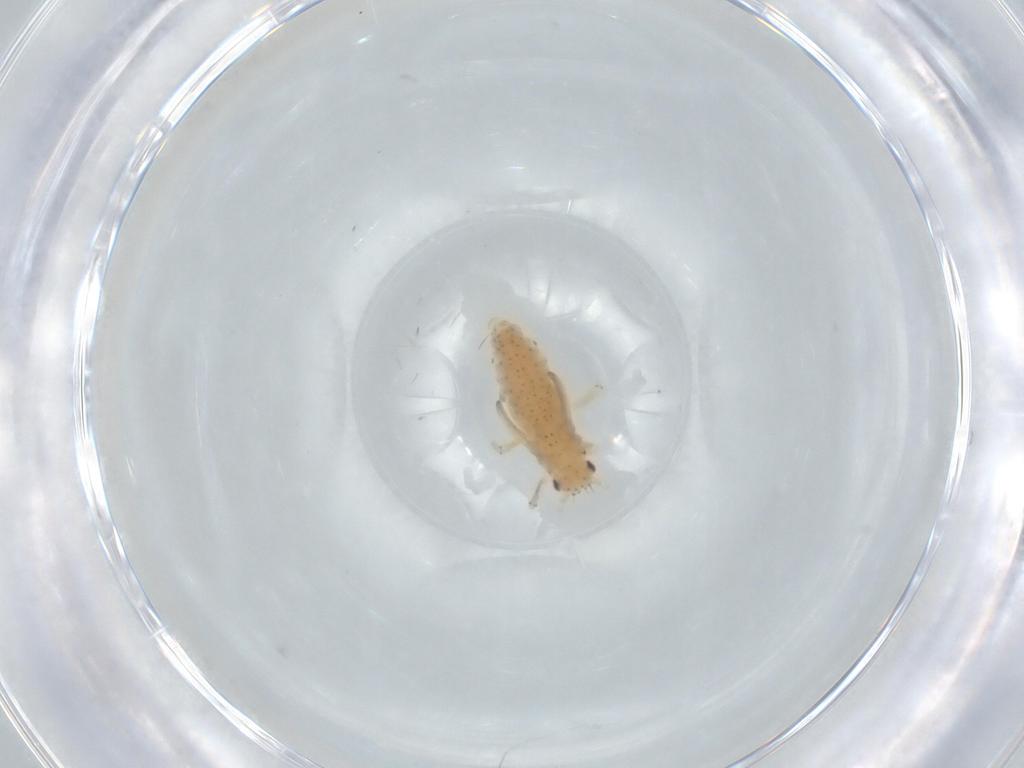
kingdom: Animalia
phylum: Arthropoda
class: Insecta
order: Hemiptera
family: Aphididae
